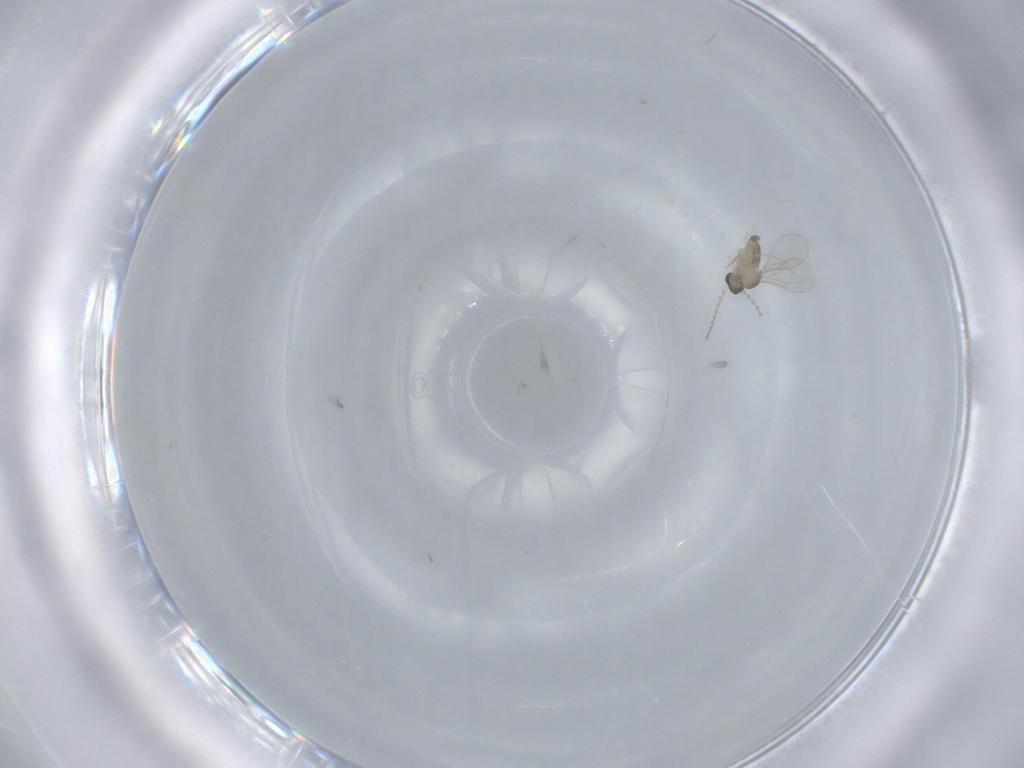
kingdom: Animalia
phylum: Arthropoda
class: Insecta
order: Diptera
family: Cecidomyiidae
